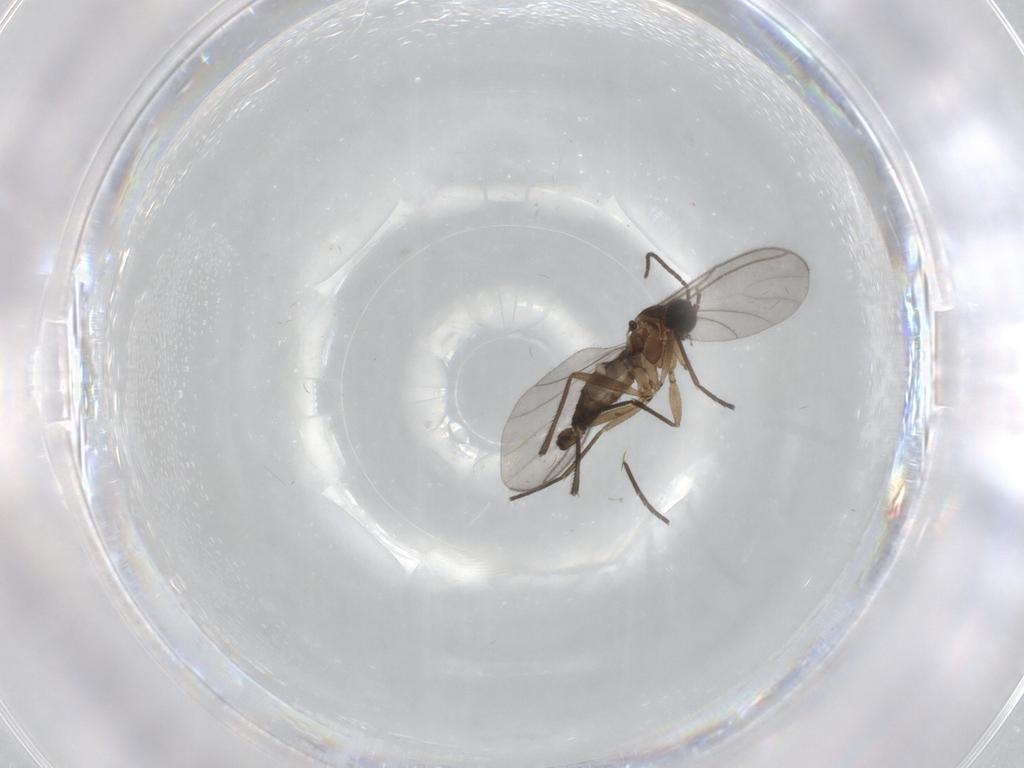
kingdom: Animalia
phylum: Arthropoda
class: Insecta
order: Diptera
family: Sciaridae
